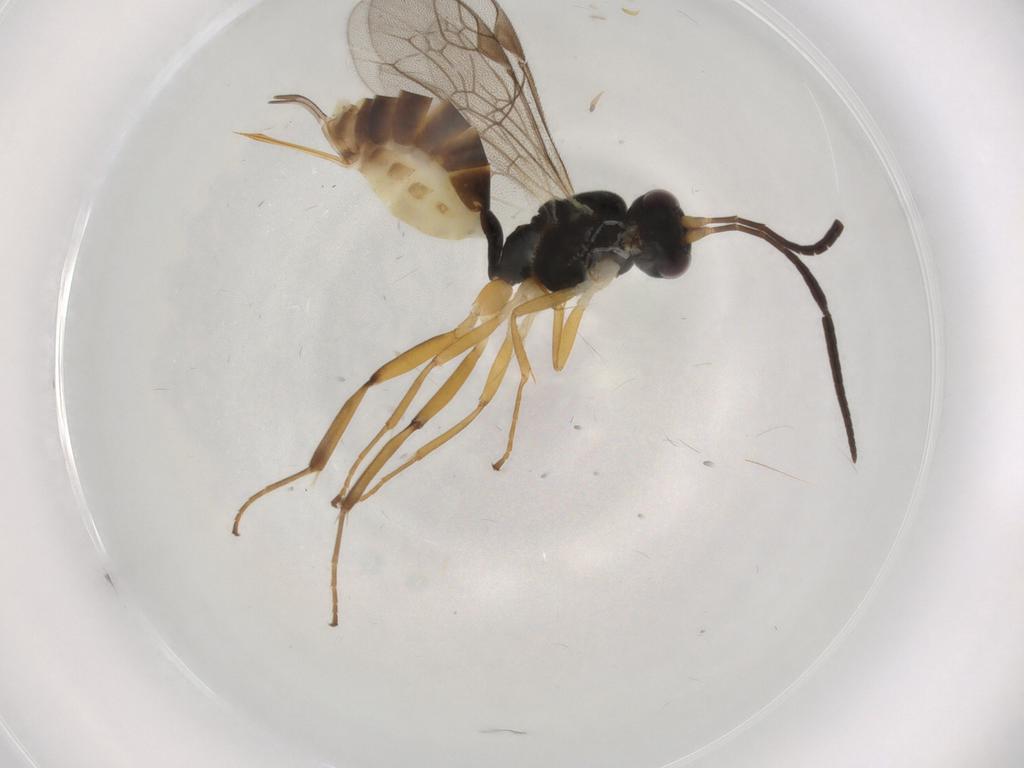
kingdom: Animalia
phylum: Arthropoda
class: Insecta
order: Hymenoptera
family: Ichneumonidae
